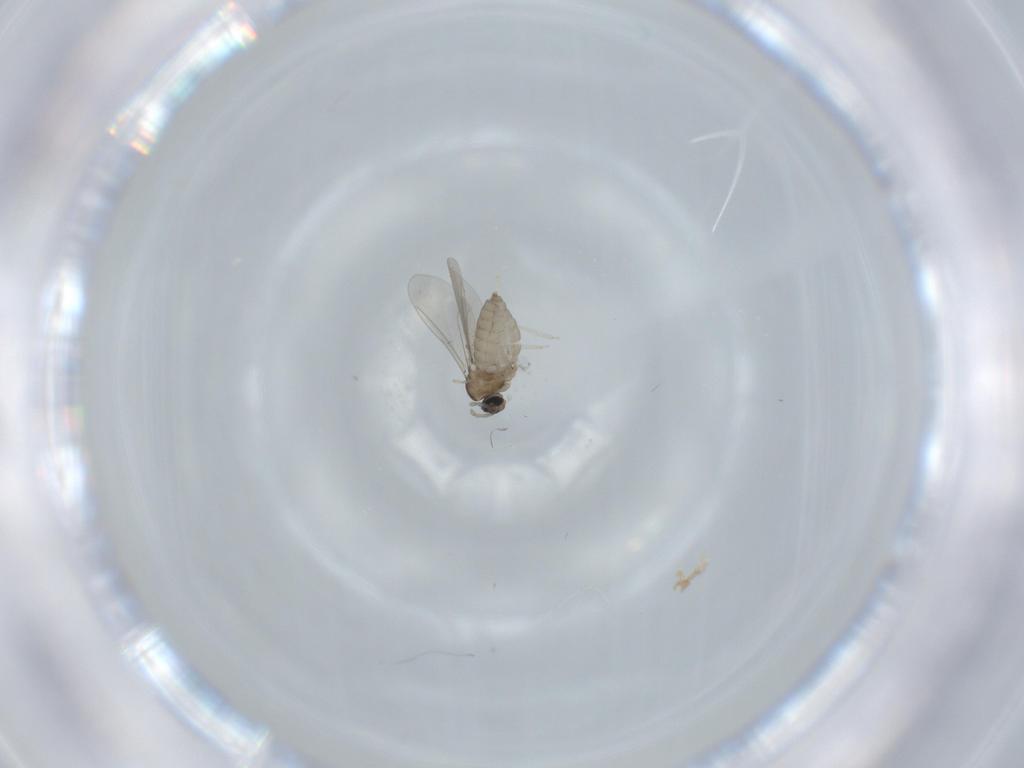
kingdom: Animalia
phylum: Arthropoda
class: Insecta
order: Diptera
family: Cecidomyiidae
